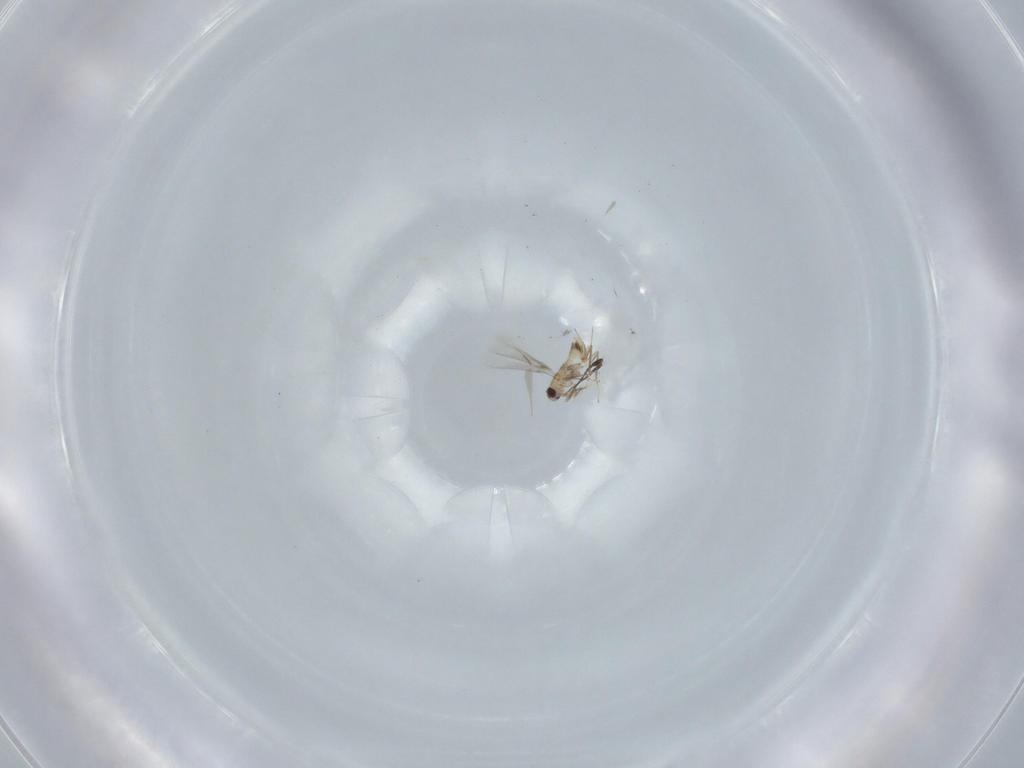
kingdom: Animalia
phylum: Arthropoda
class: Insecta
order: Hymenoptera
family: Mymaridae
